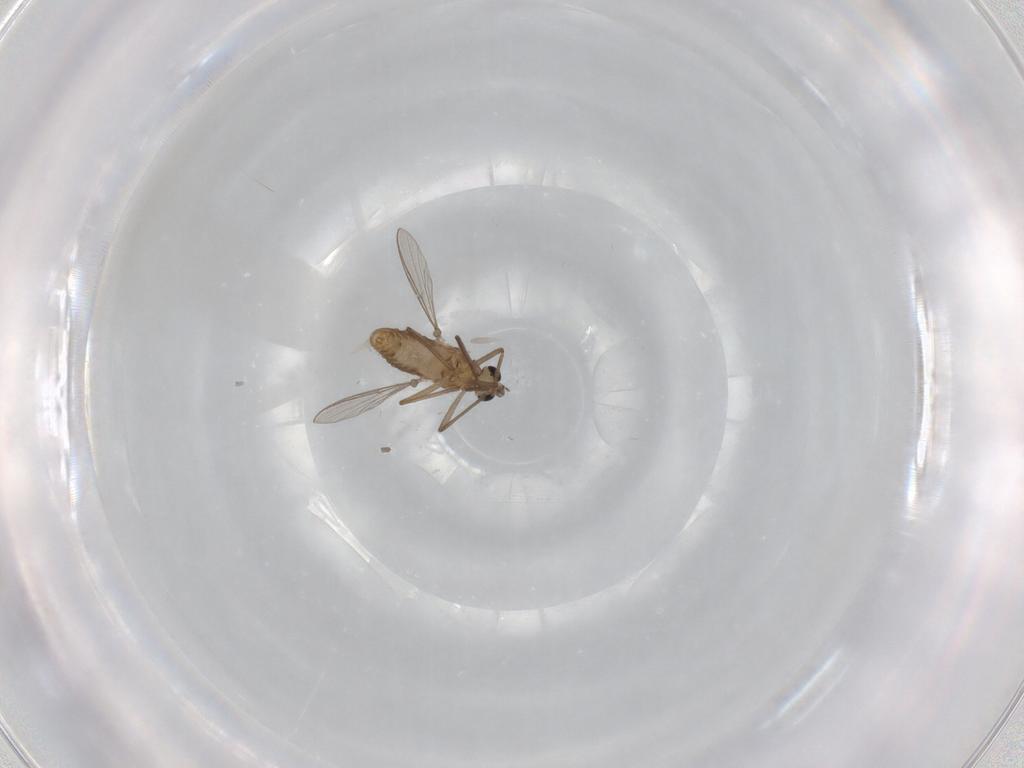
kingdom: Animalia
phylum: Arthropoda
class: Insecta
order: Diptera
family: Chironomidae
